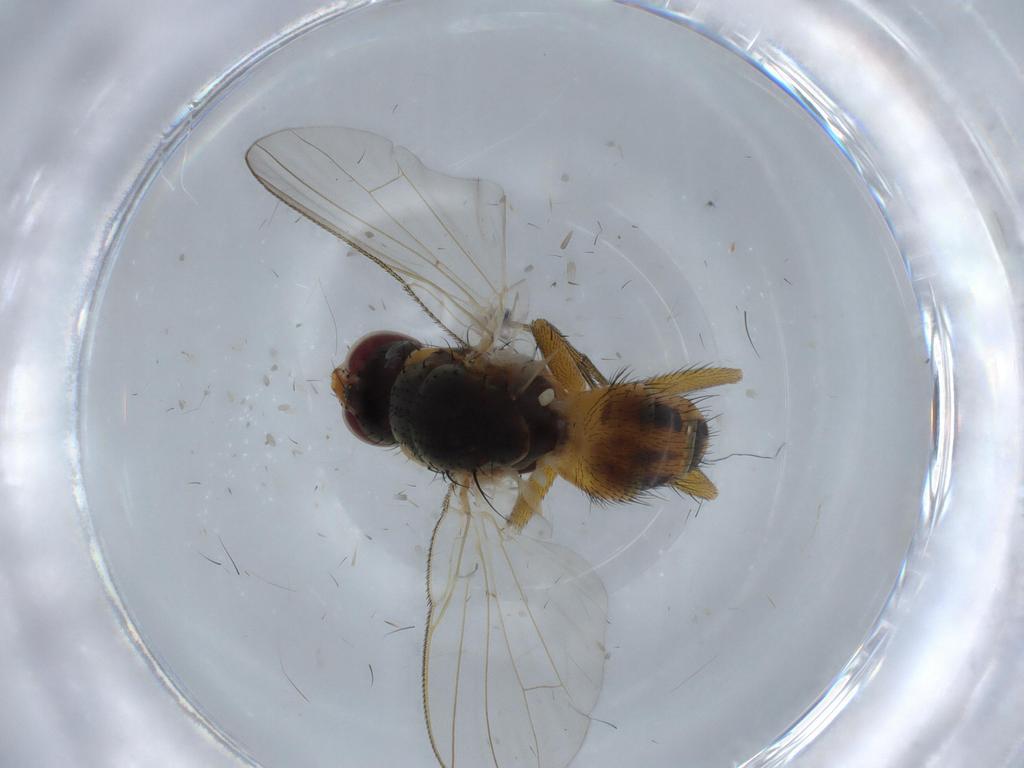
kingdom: Animalia
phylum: Arthropoda
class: Insecta
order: Diptera
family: Muscidae
